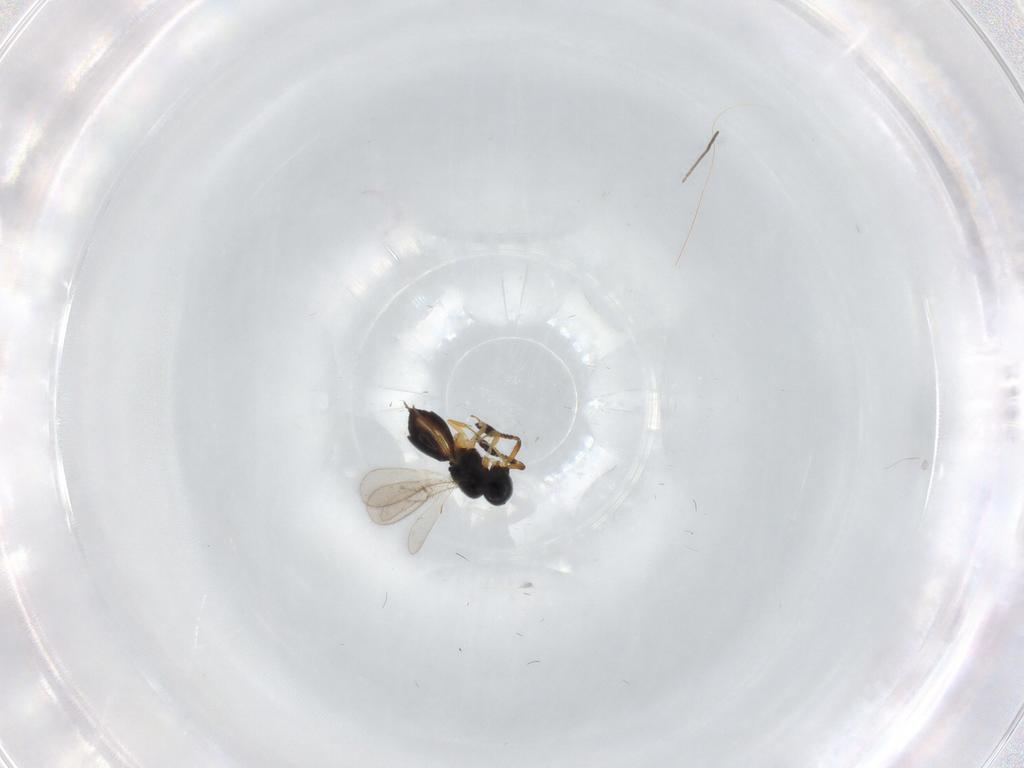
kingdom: Animalia
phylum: Arthropoda
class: Insecta
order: Hymenoptera
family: Scelionidae
